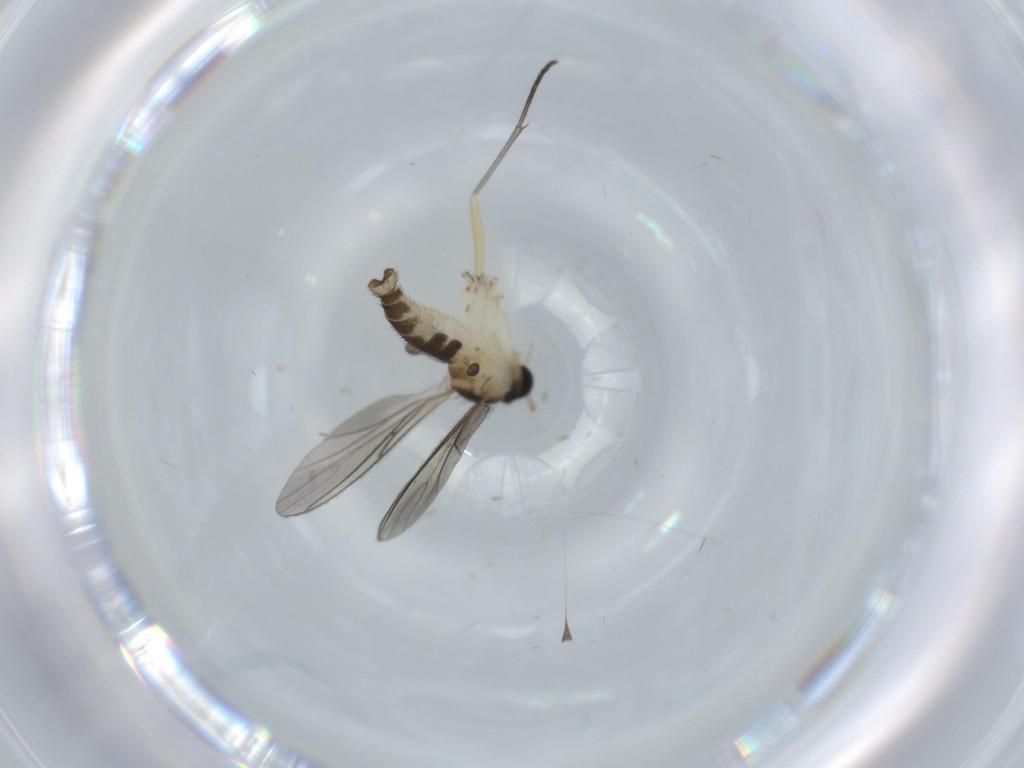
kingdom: Animalia
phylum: Arthropoda
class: Insecta
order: Diptera
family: Sciaridae
